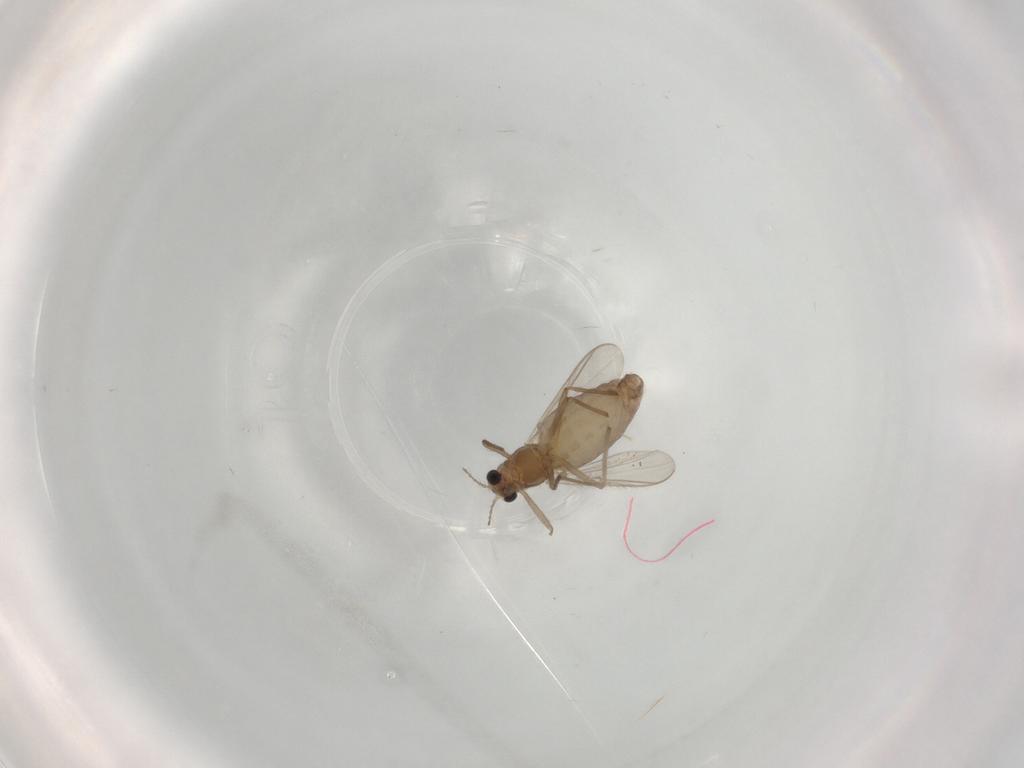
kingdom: Animalia
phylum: Arthropoda
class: Insecta
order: Diptera
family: Chironomidae
